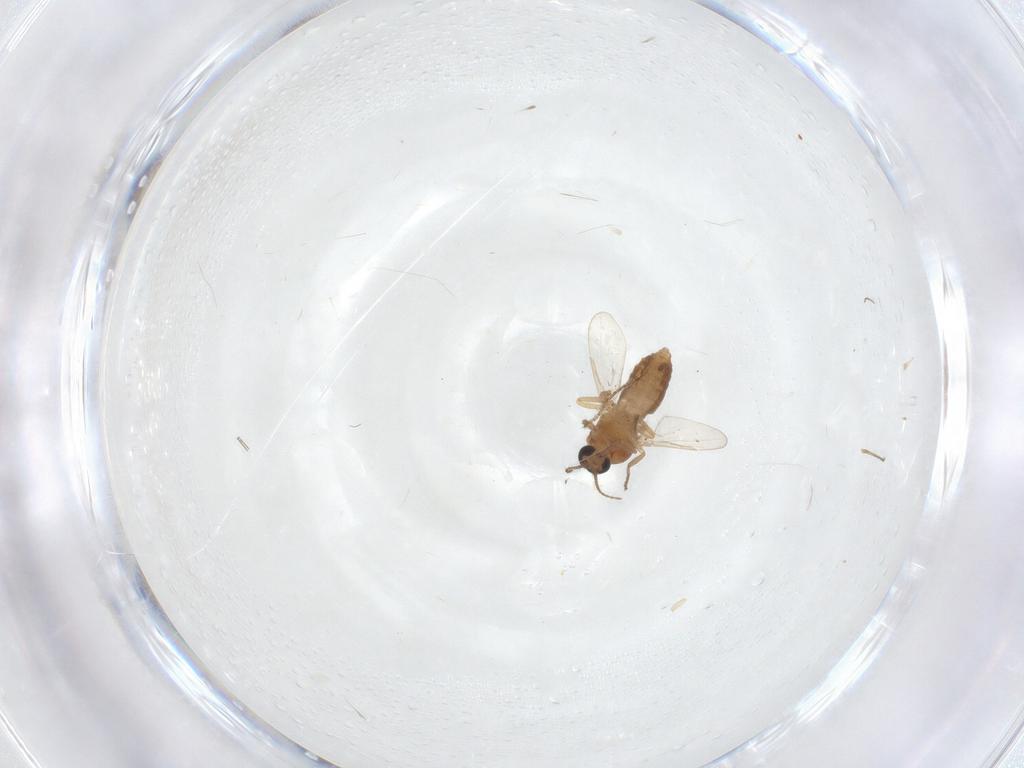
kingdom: Animalia
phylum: Arthropoda
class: Insecta
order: Diptera
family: Ceratopogonidae
